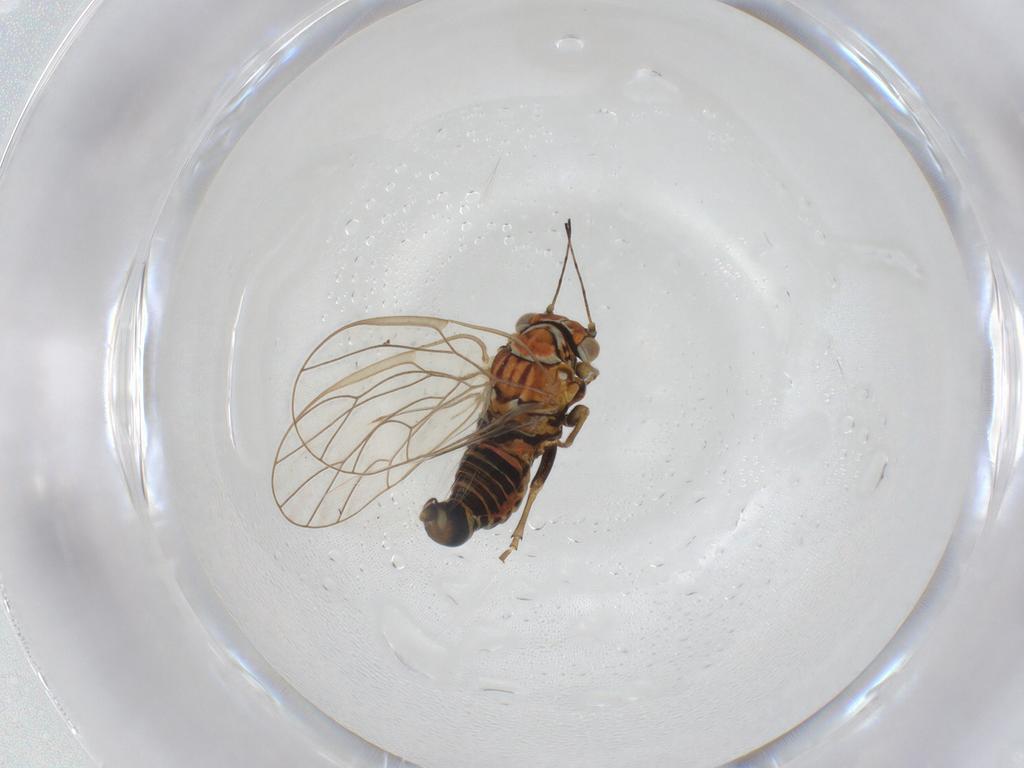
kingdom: Animalia
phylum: Arthropoda
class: Insecta
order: Hemiptera
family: Psyllidae
